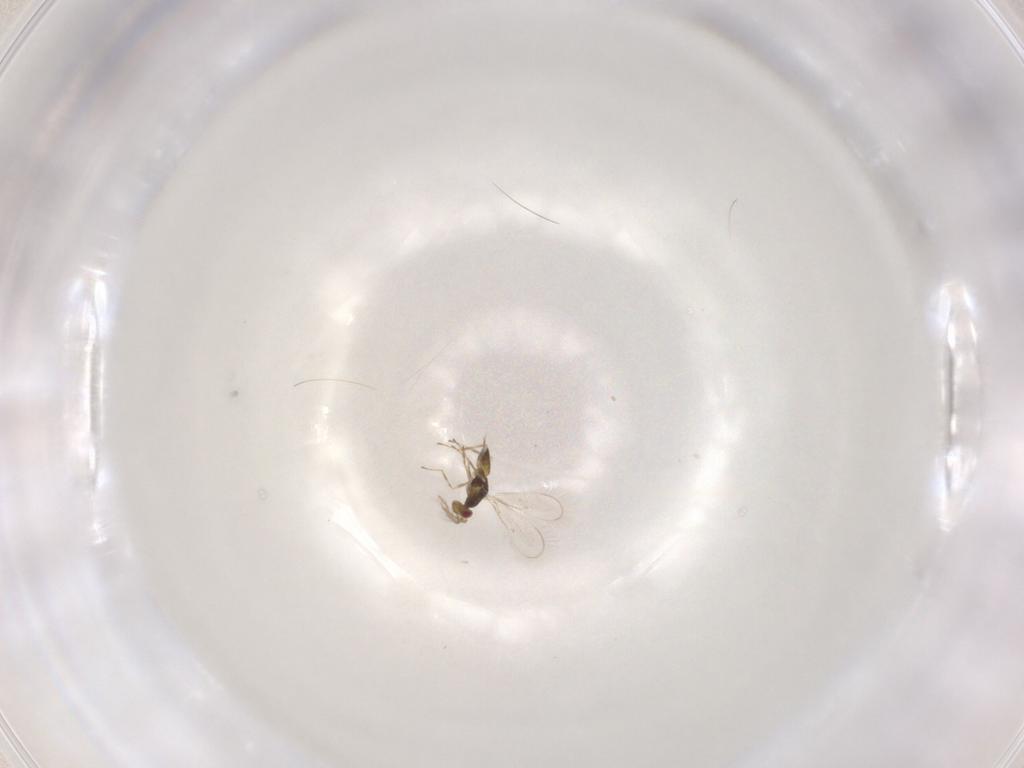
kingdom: Animalia
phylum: Arthropoda
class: Insecta
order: Hymenoptera
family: Eulophidae
